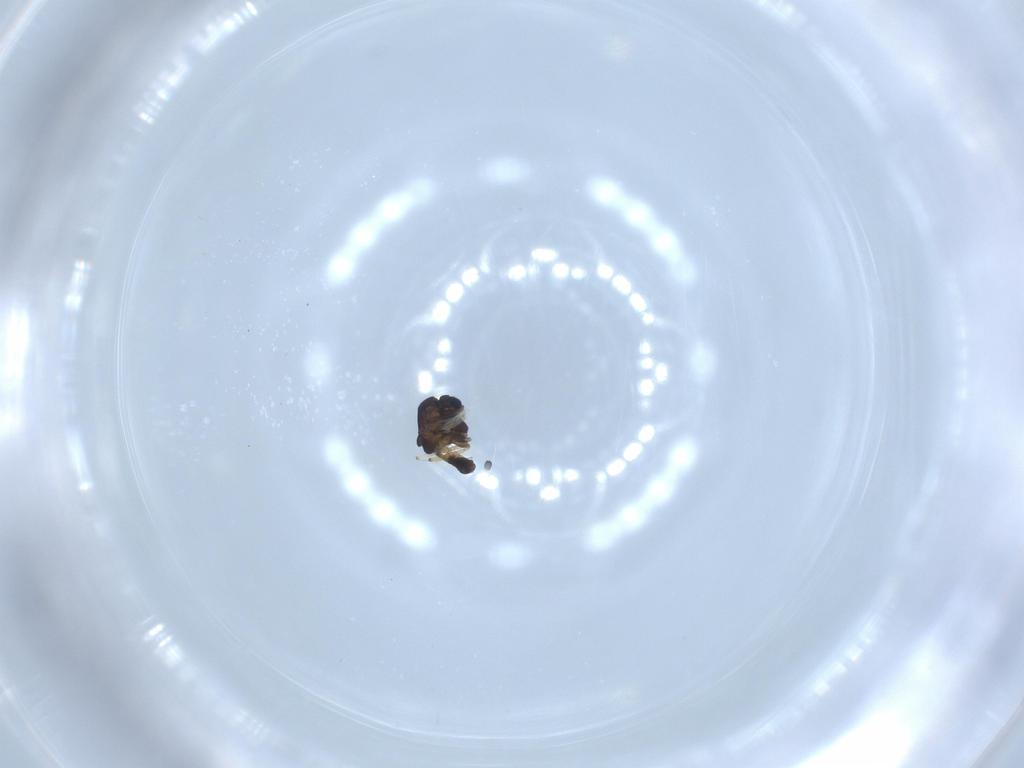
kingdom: Animalia
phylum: Arthropoda
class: Insecta
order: Diptera
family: Chironomidae
